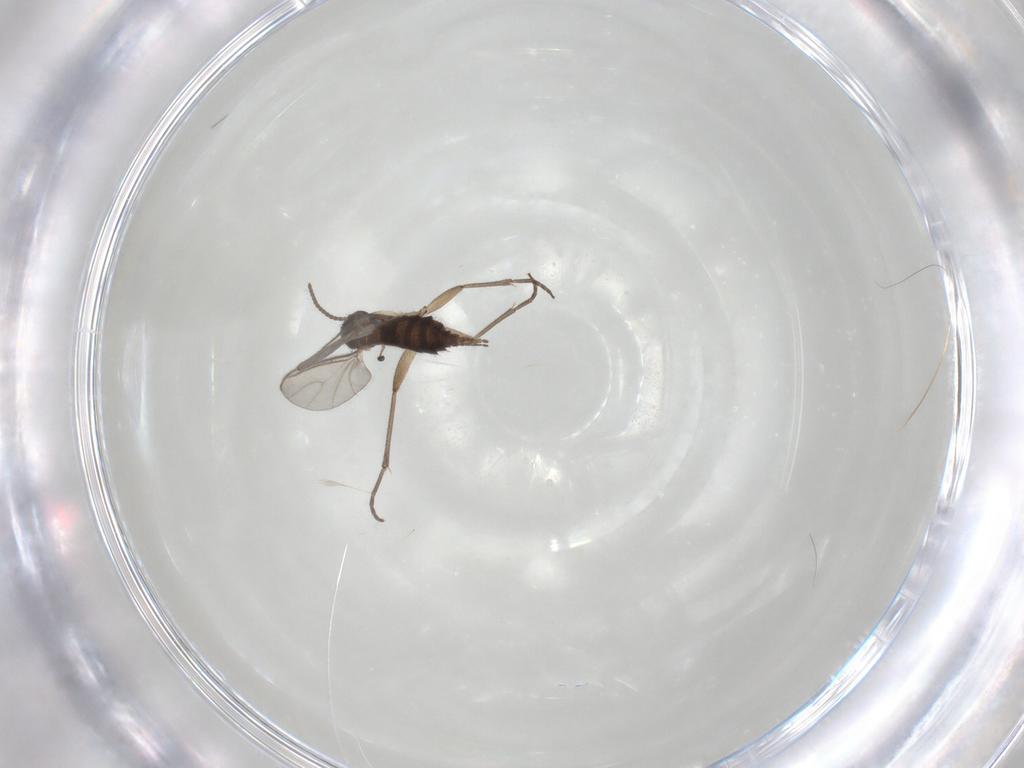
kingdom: Animalia
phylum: Arthropoda
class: Insecta
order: Diptera
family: Sciaridae
